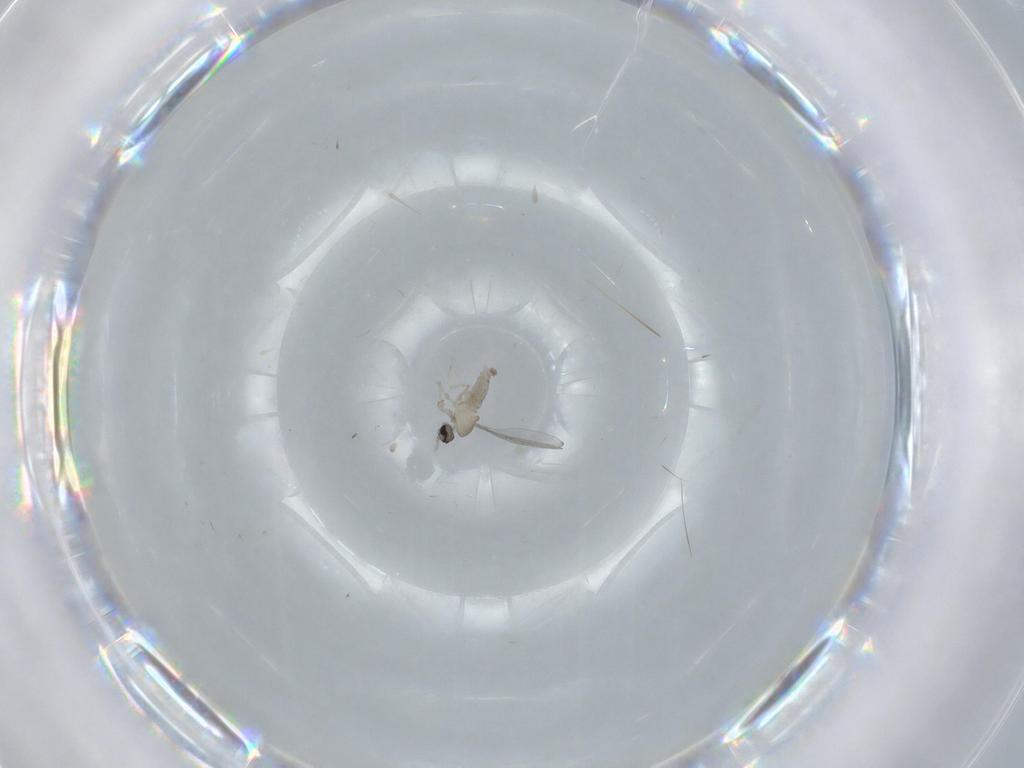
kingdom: Animalia
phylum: Arthropoda
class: Insecta
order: Diptera
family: Cecidomyiidae
